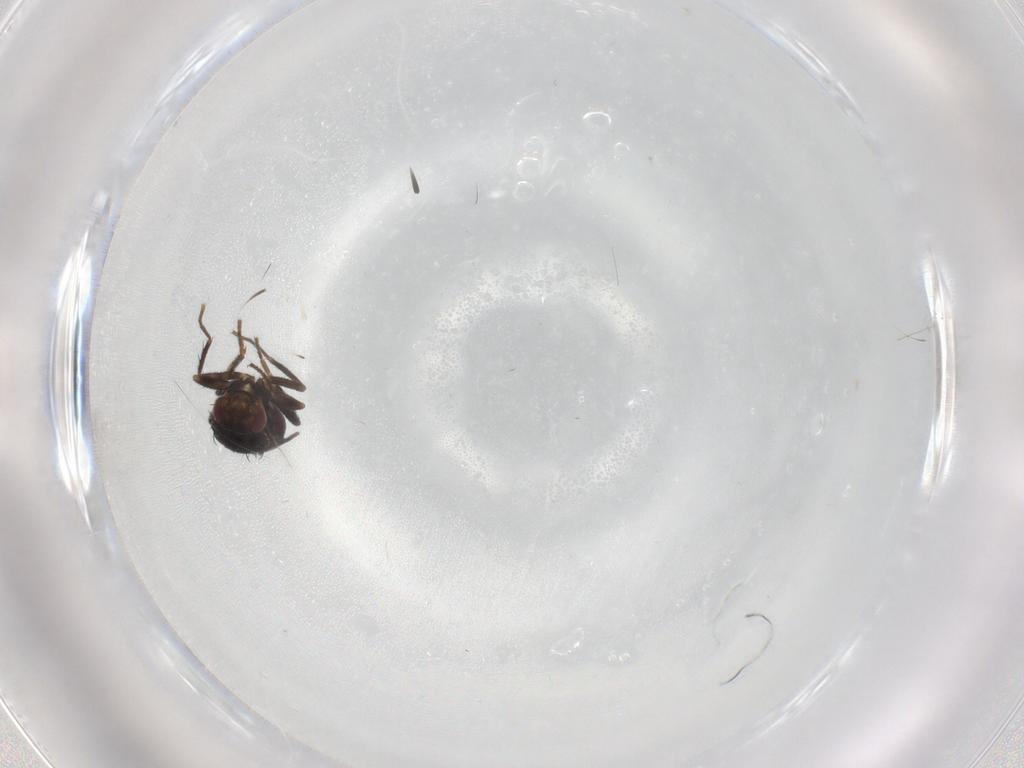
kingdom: Animalia
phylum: Arthropoda
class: Insecta
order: Diptera
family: Sphaeroceridae
